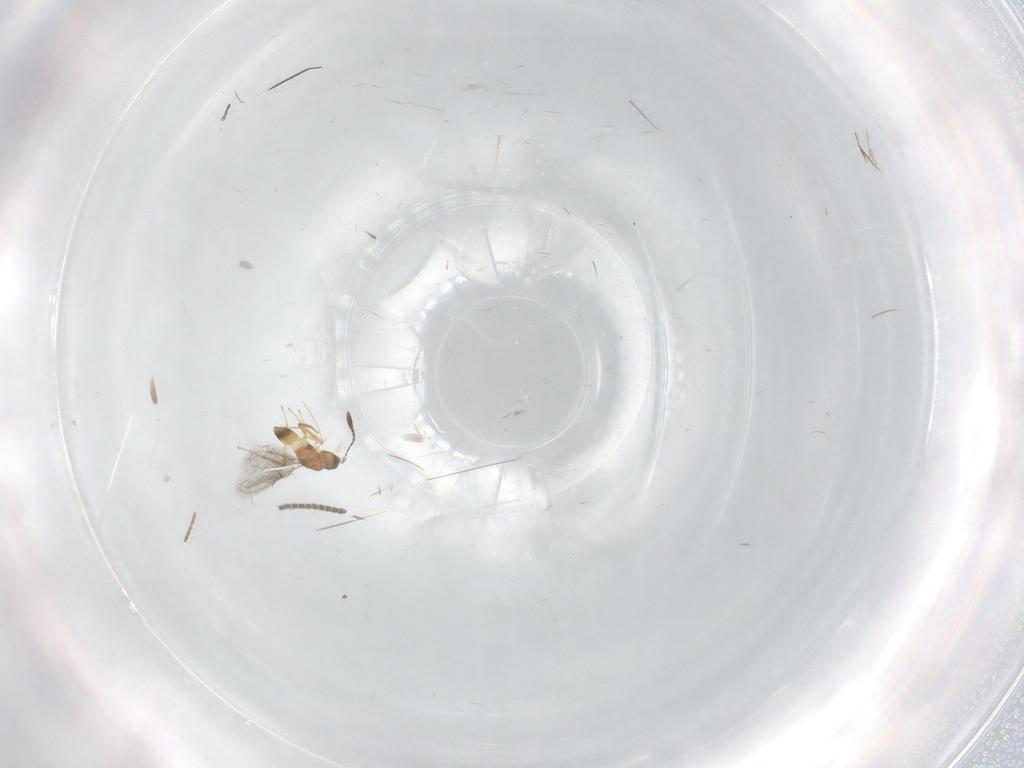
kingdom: Animalia
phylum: Arthropoda
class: Insecta
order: Hymenoptera
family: Mymaridae
